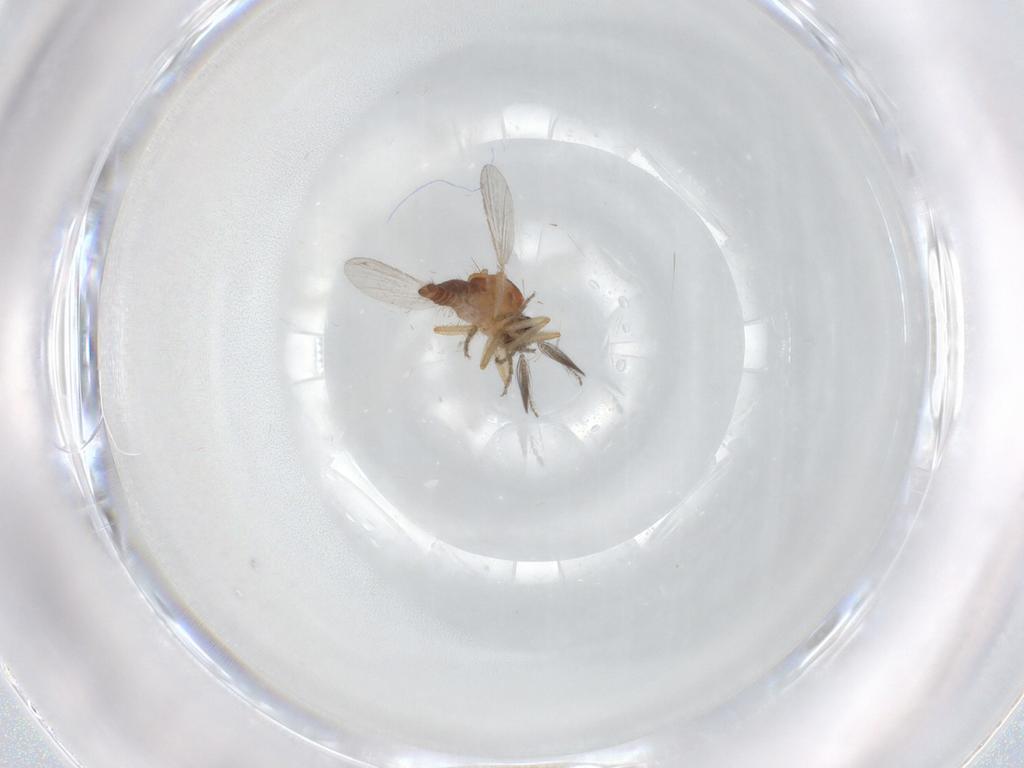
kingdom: Animalia
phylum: Arthropoda
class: Insecta
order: Diptera
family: Ceratopogonidae
